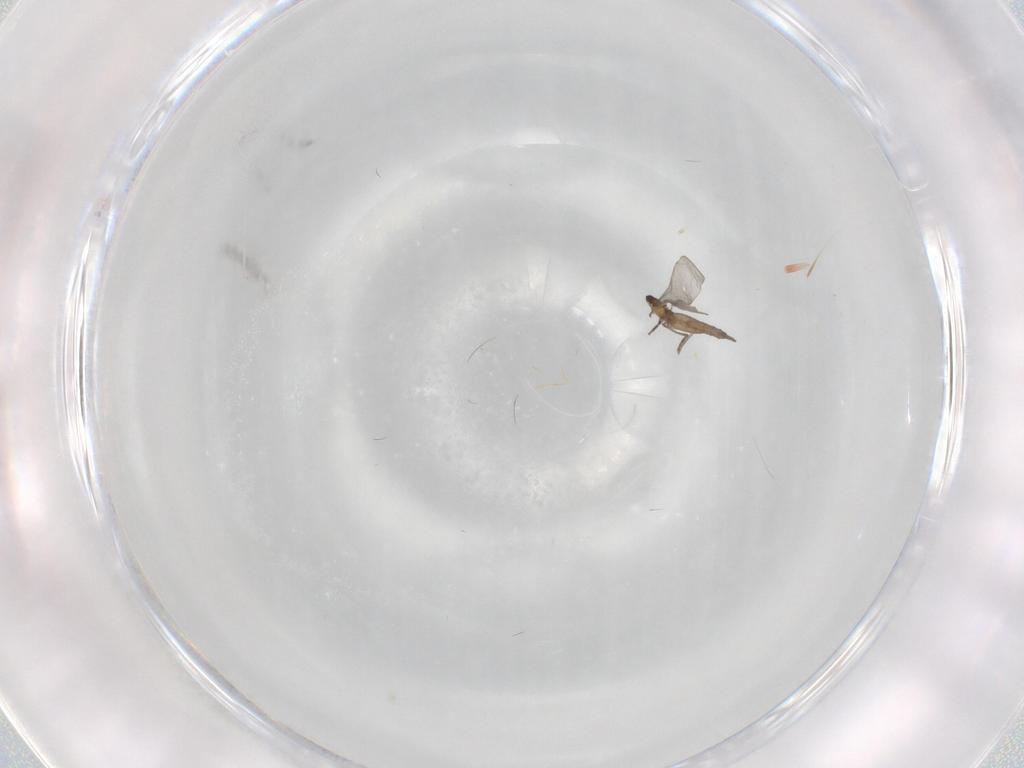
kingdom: Animalia
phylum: Arthropoda
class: Insecta
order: Diptera
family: Cecidomyiidae
